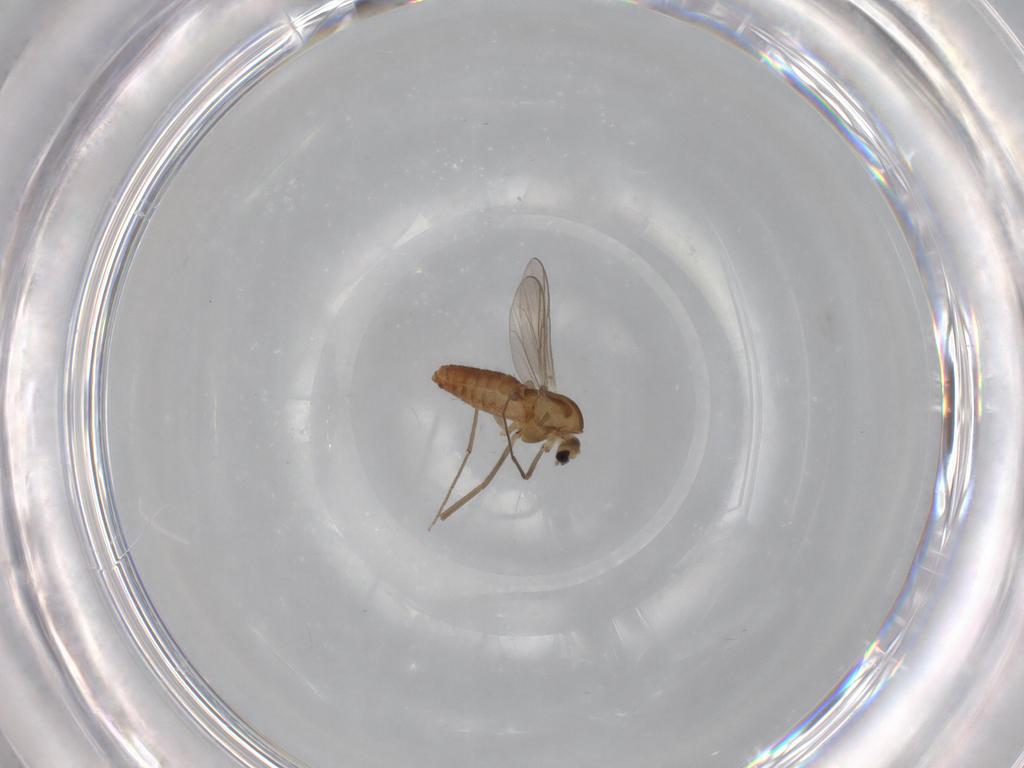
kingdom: Animalia
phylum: Arthropoda
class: Insecta
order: Diptera
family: Chironomidae
